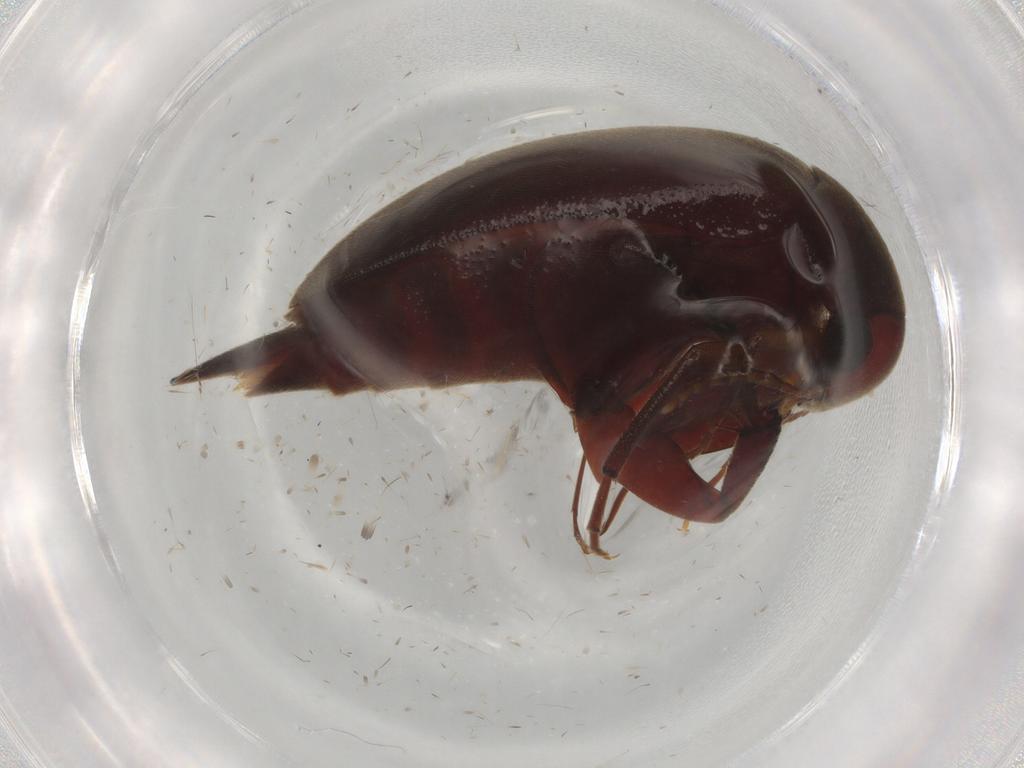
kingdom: Animalia
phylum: Arthropoda
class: Insecta
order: Coleoptera
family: Mordellidae
